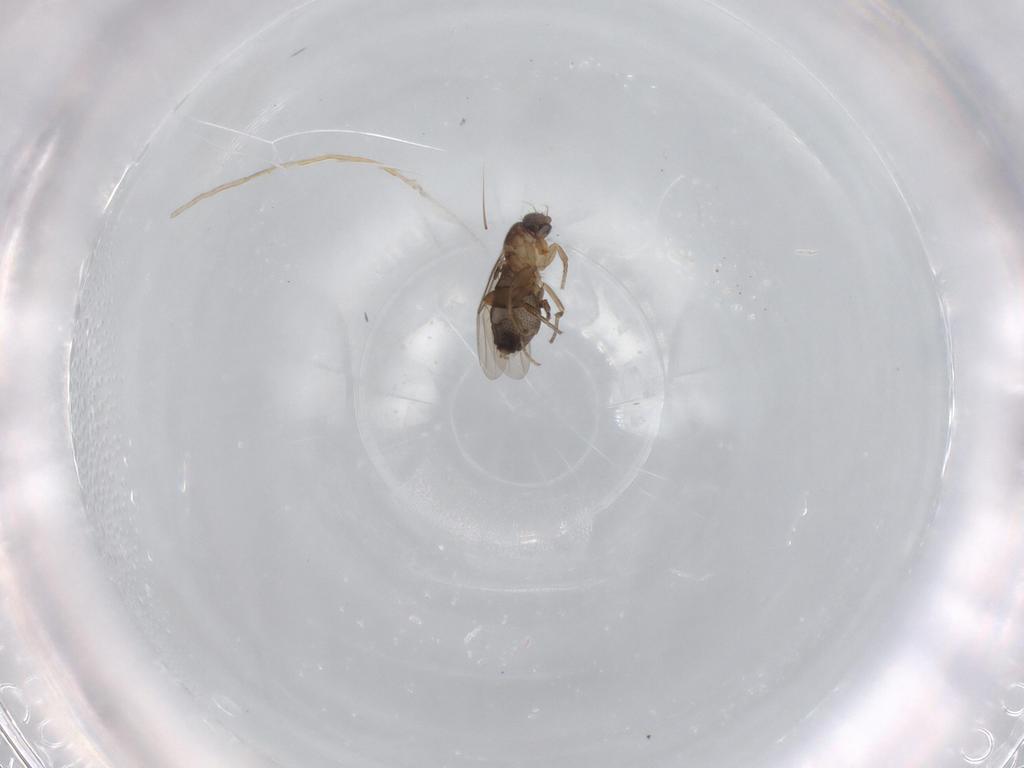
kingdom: Animalia
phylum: Arthropoda
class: Insecta
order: Diptera
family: Phoridae
